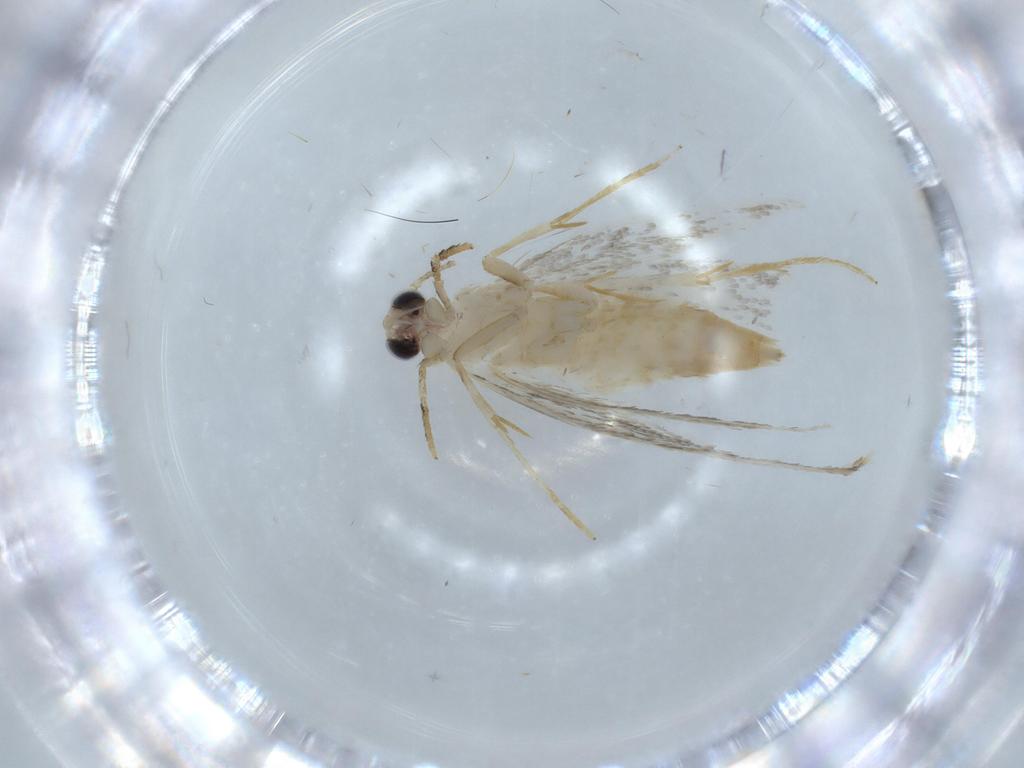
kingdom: Animalia
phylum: Arthropoda
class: Insecta
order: Lepidoptera
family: Tineidae
